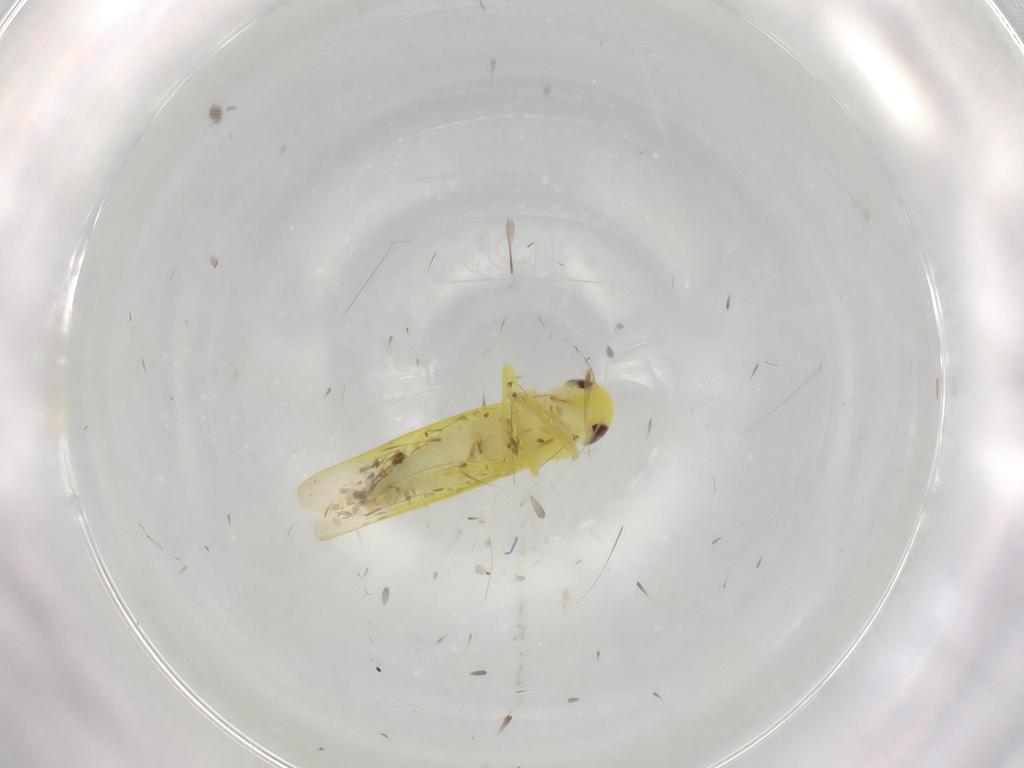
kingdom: Animalia
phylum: Arthropoda
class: Insecta
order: Hemiptera
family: Cicadellidae
